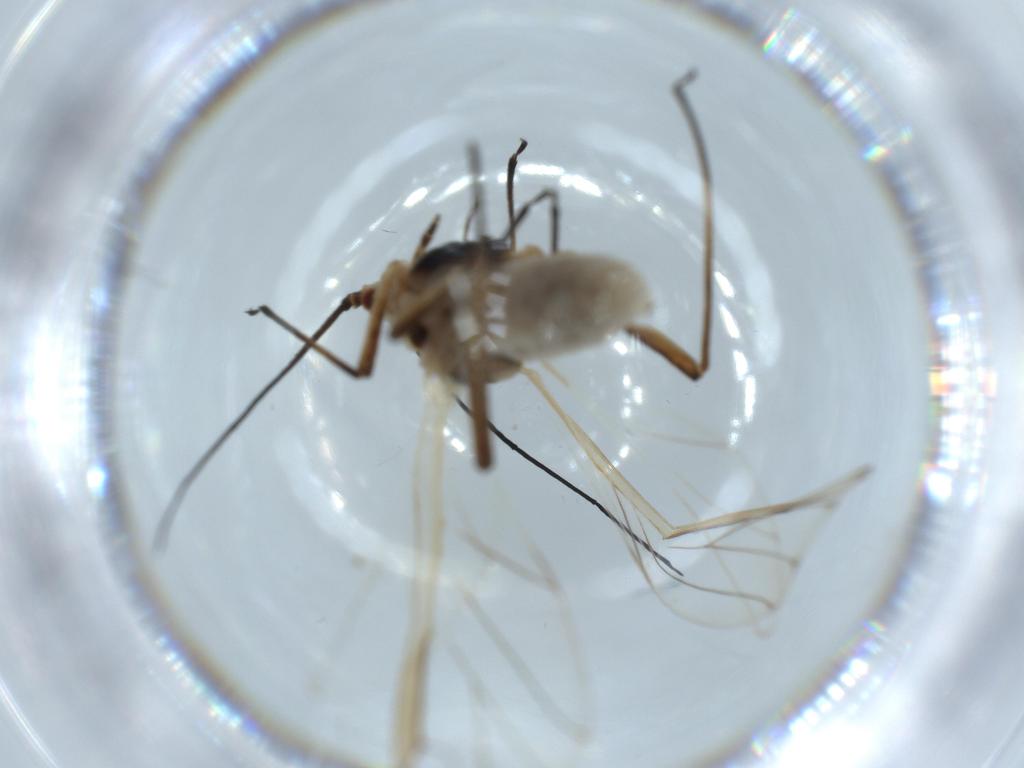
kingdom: Animalia
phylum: Arthropoda
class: Insecta
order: Hemiptera
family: Aphididae
